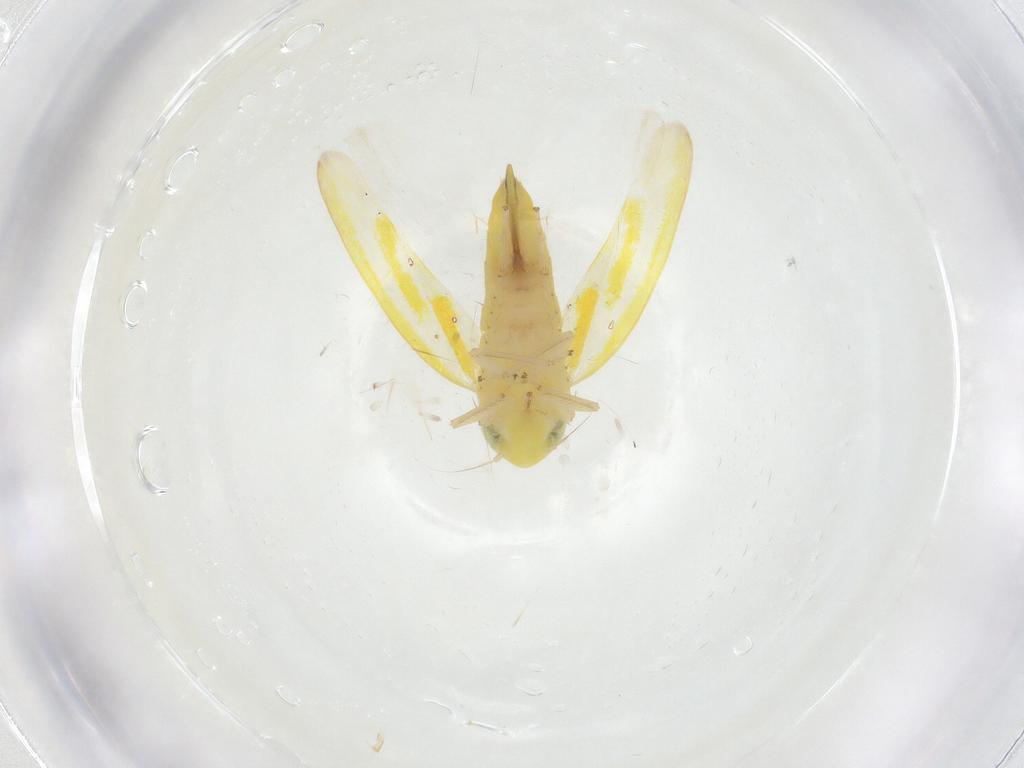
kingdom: Animalia
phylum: Arthropoda
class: Insecta
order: Hemiptera
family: Cicadellidae
